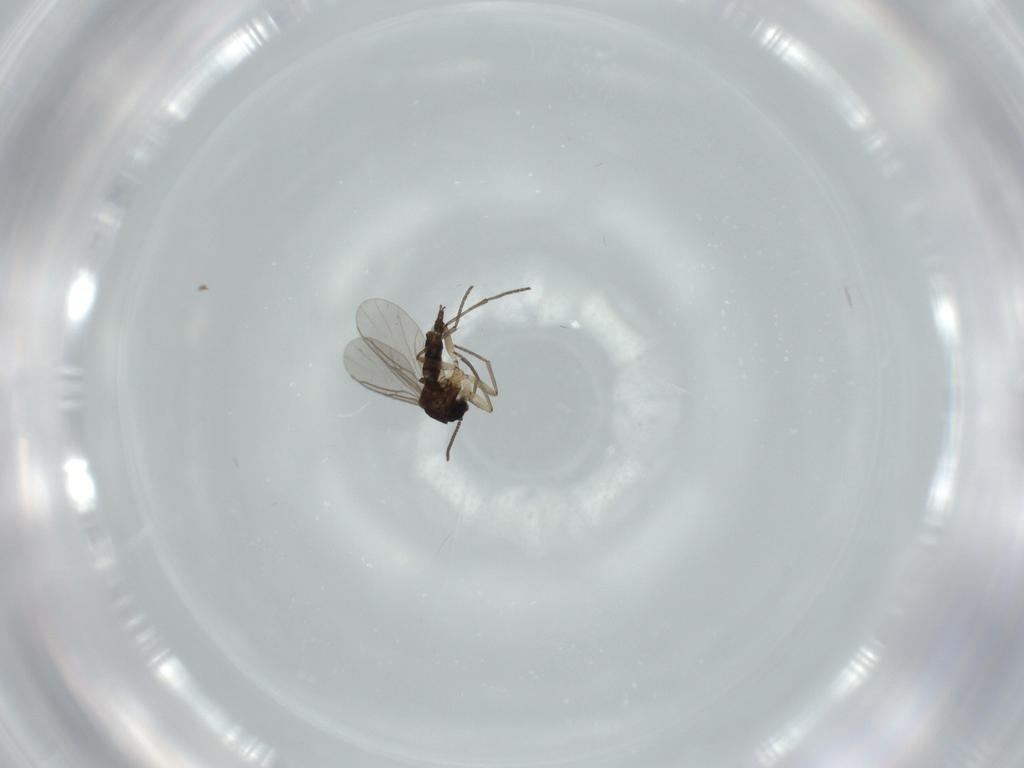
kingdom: Animalia
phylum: Arthropoda
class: Insecta
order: Diptera
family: Sciaridae
